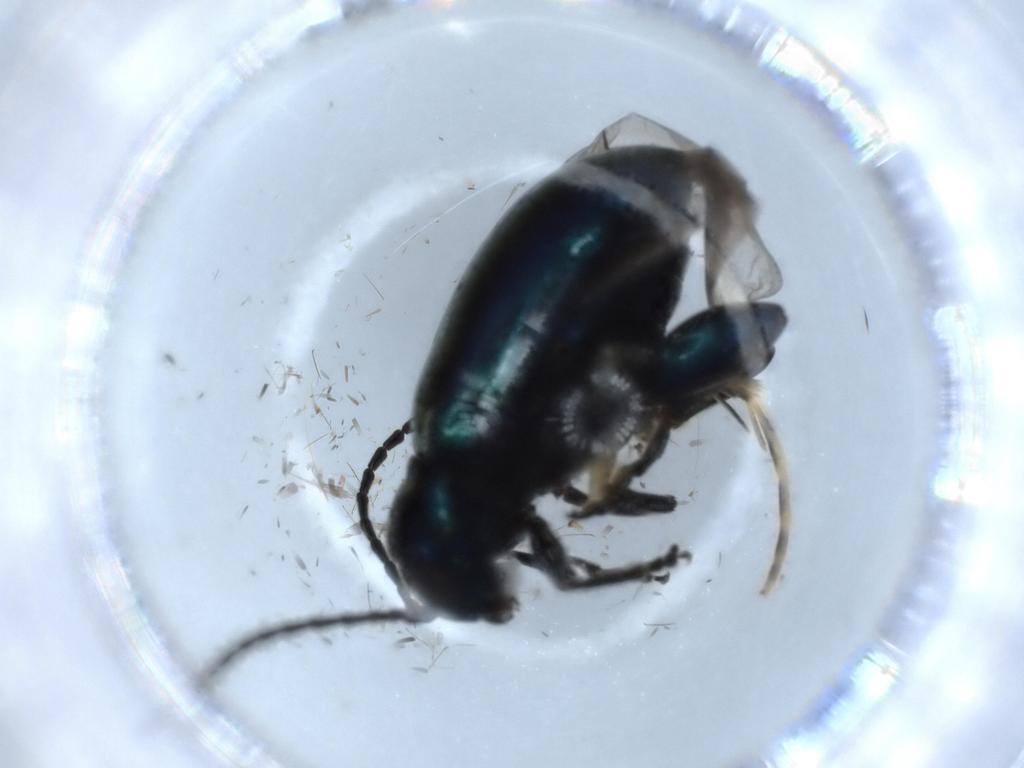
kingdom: Animalia
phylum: Arthropoda
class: Insecta
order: Coleoptera
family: Chrysomelidae
